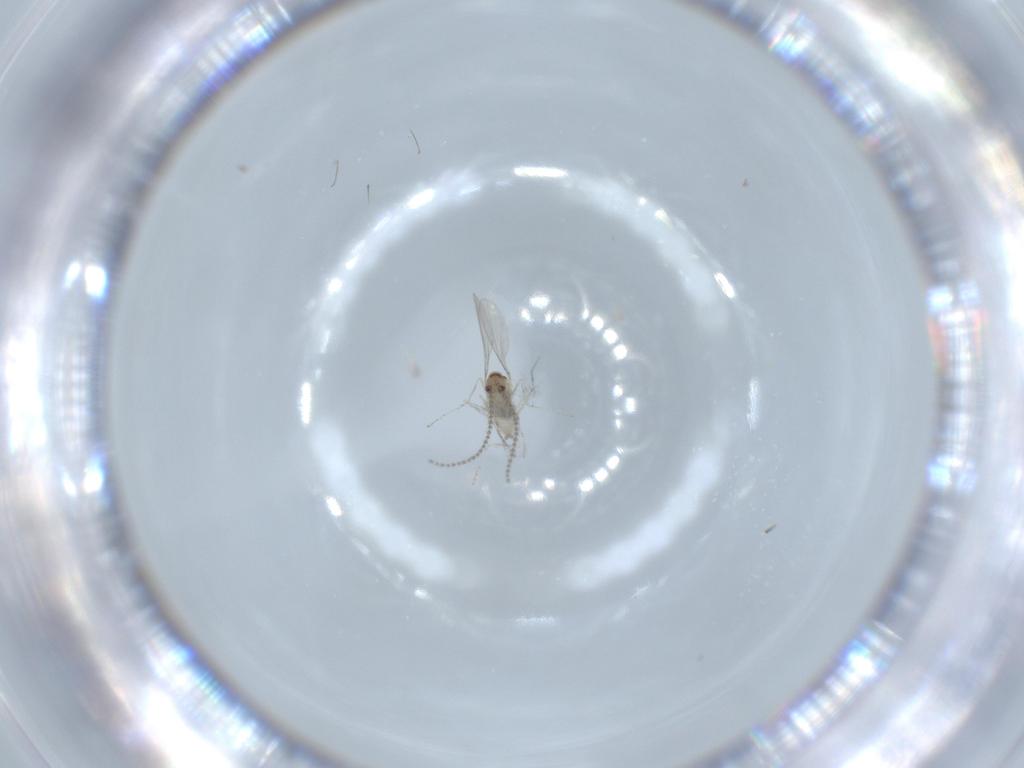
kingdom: Animalia
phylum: Arthropoda
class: Insecta
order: Diptera
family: Cecidomyiidae
